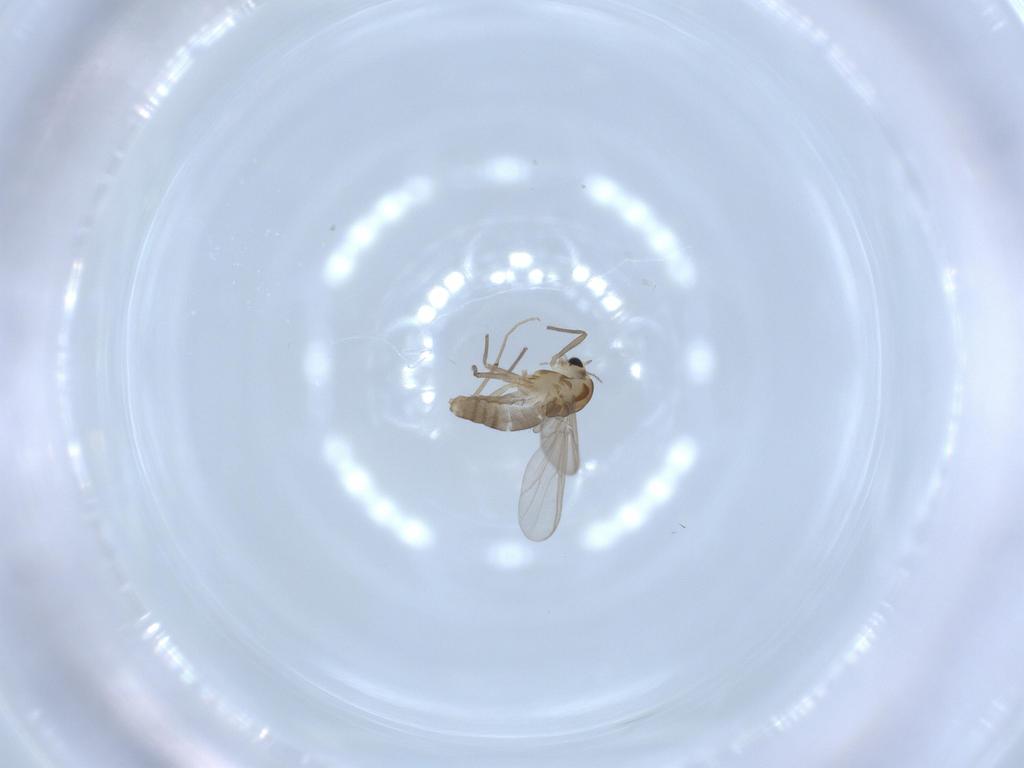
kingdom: Animalia
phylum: Arthropoda
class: Insecta
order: Diptera
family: Chironomidae
